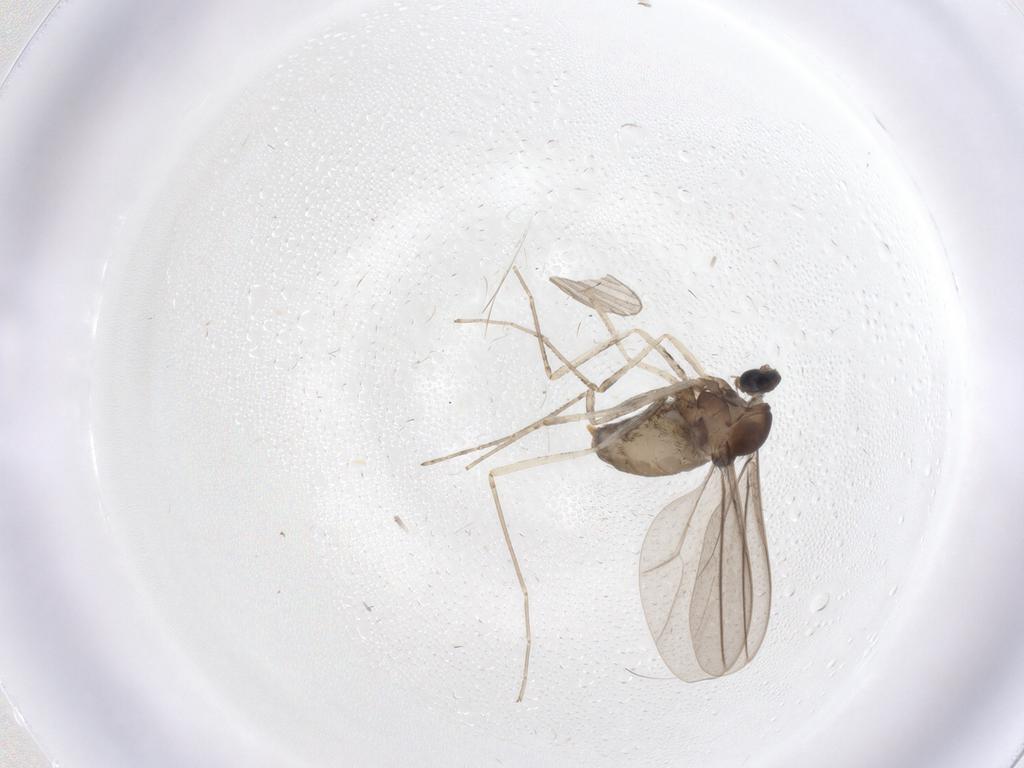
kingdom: Animalia
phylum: Arthropoda
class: Insecta
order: Diptera
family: Cecidomyiidae
